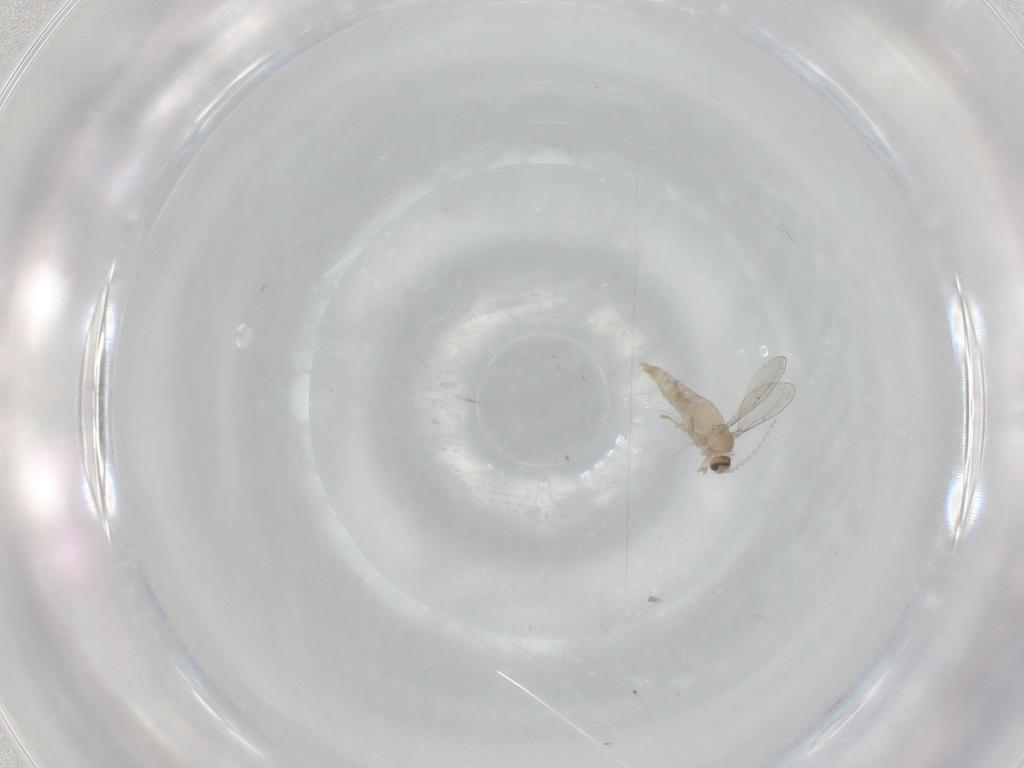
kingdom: Animalia
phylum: Arthropoda
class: Insecta
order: Diptera
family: Cecidomyiidae
